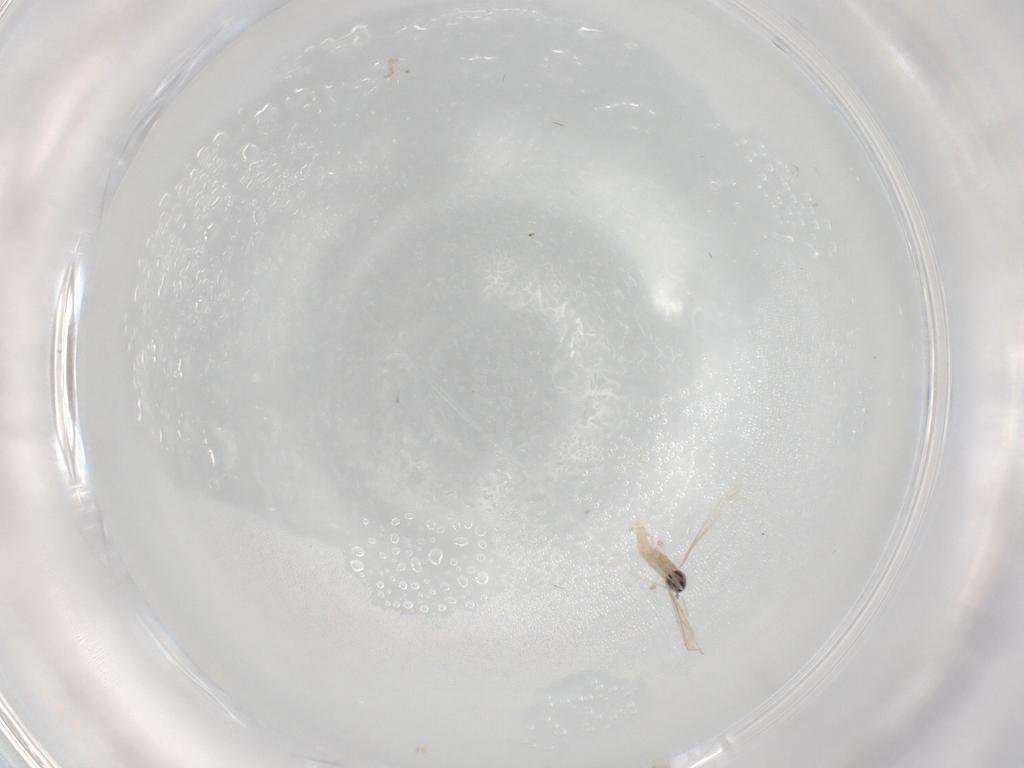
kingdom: Animalia
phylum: Arthropoda
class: Insecta
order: Diptera
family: Cecidomyiidae
